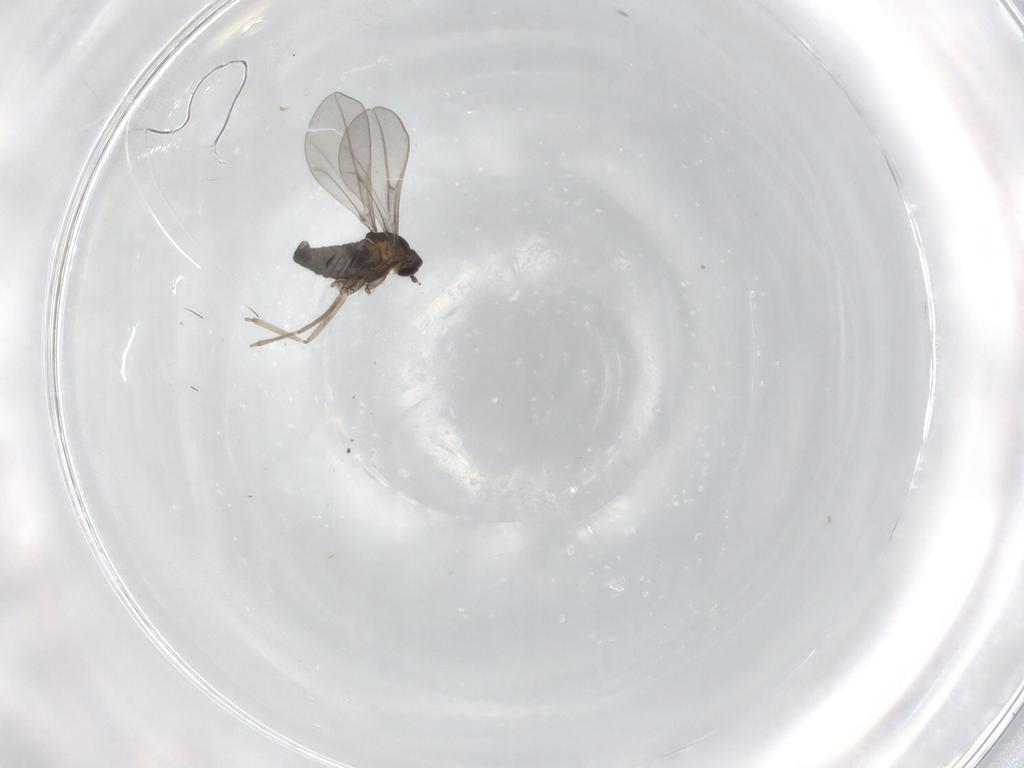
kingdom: Animalia
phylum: Arthropoda
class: Insecta
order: Diptera
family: Cecidomyiidae
